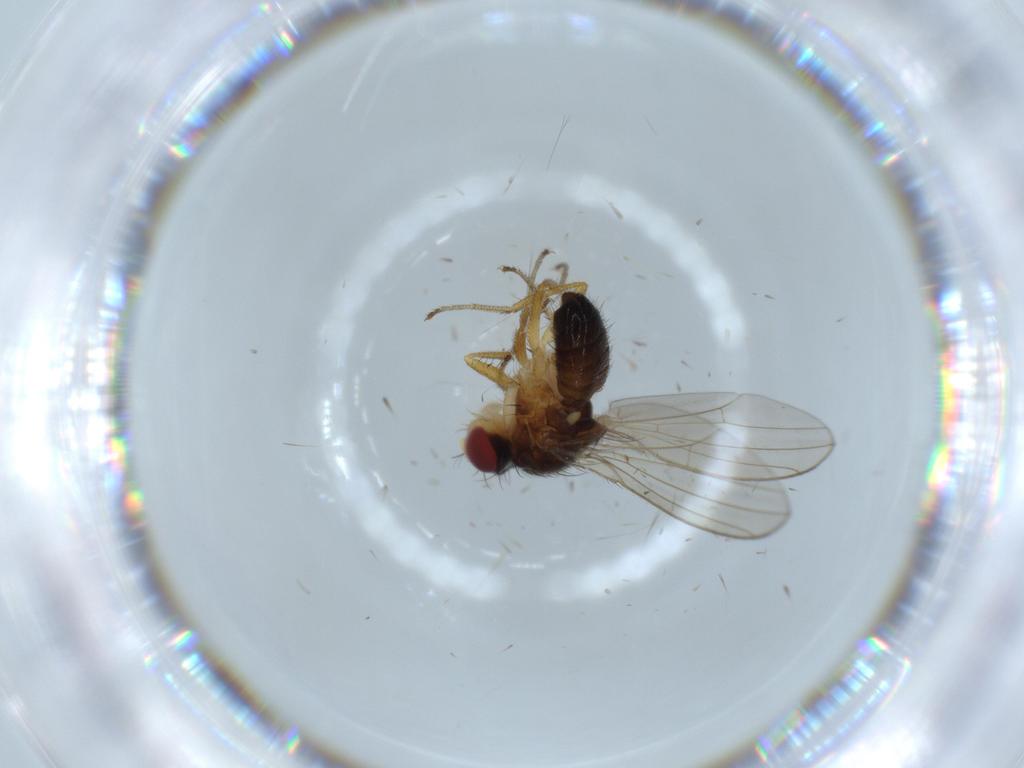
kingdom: Animalia
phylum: Arthropoda
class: Insecta
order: Diptera
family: Drosophilidae
